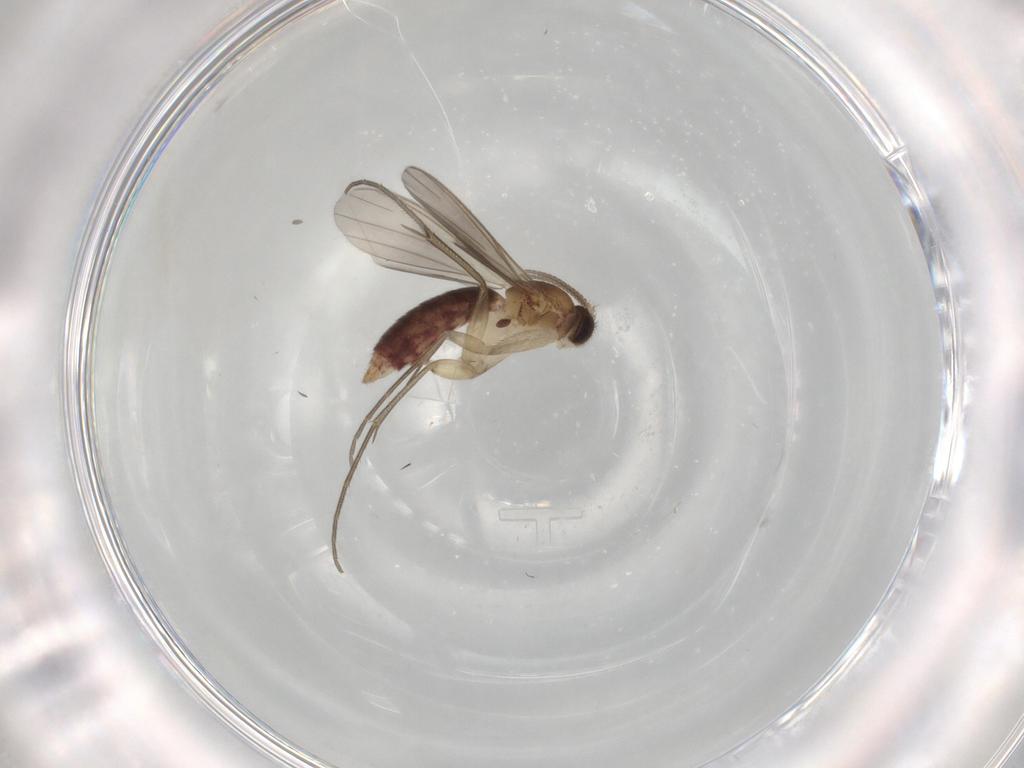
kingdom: Animalia
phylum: Arthropoda
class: Insecta
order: Diptera
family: Mycetophilidae
